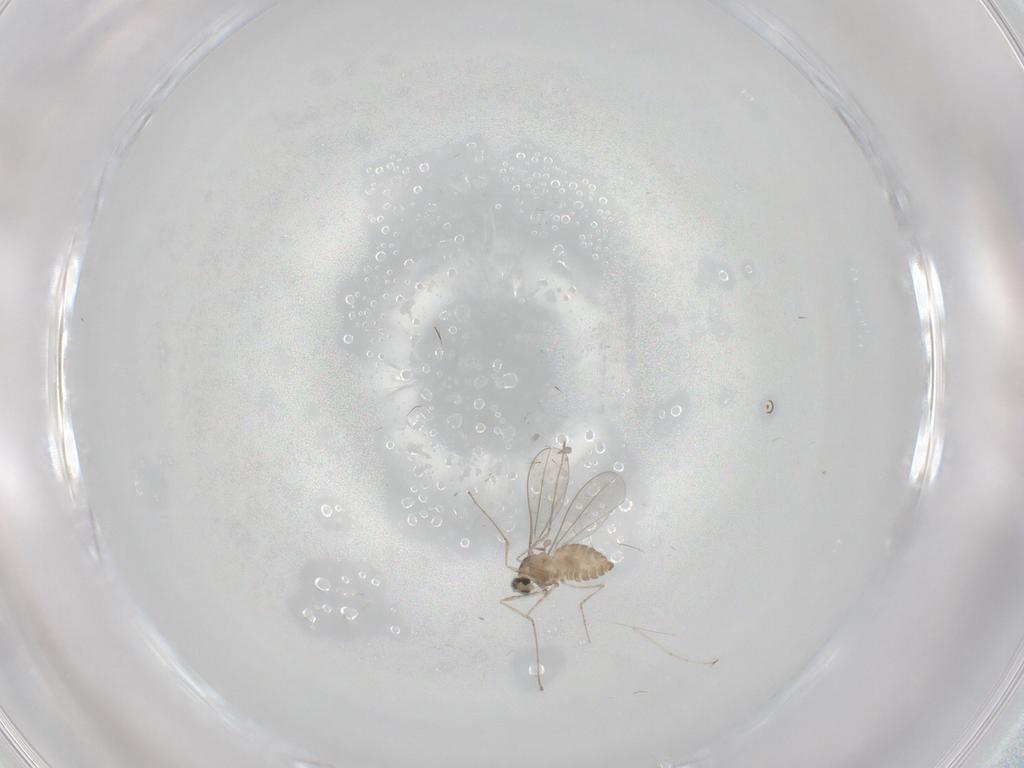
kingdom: Animalia
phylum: Arthropoda
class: Insecta
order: Diptera
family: Cecidomyiidae
